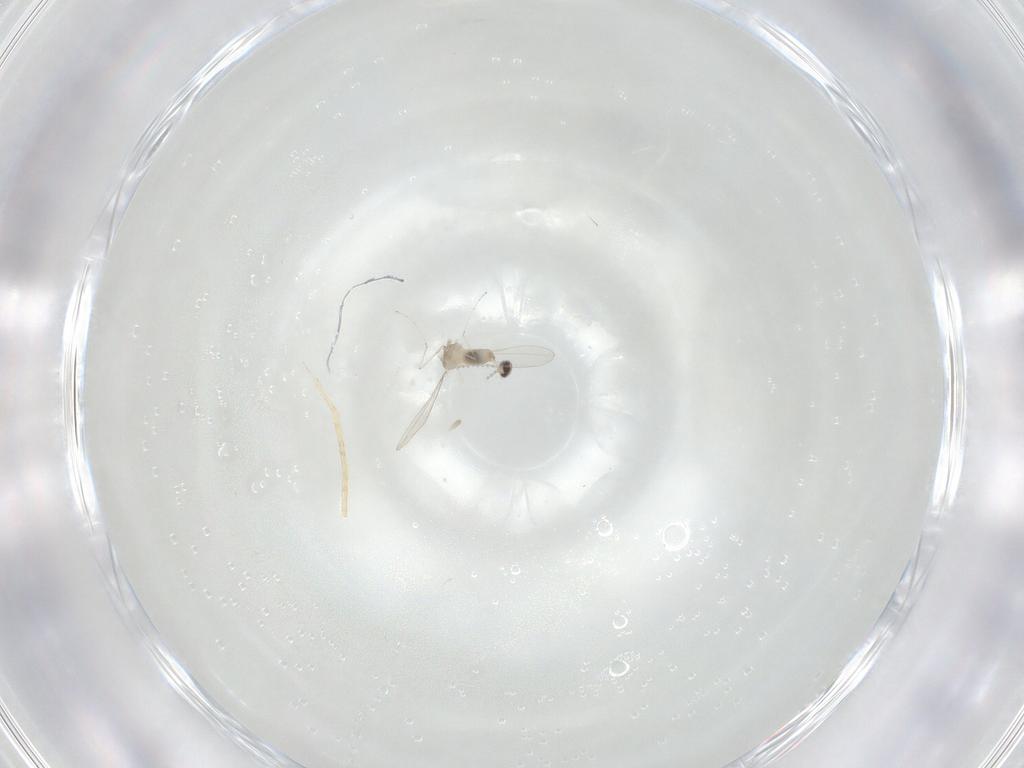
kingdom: Animalia
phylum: Arthropoda
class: Insecta
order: Diptera
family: Cecidomyiidae
